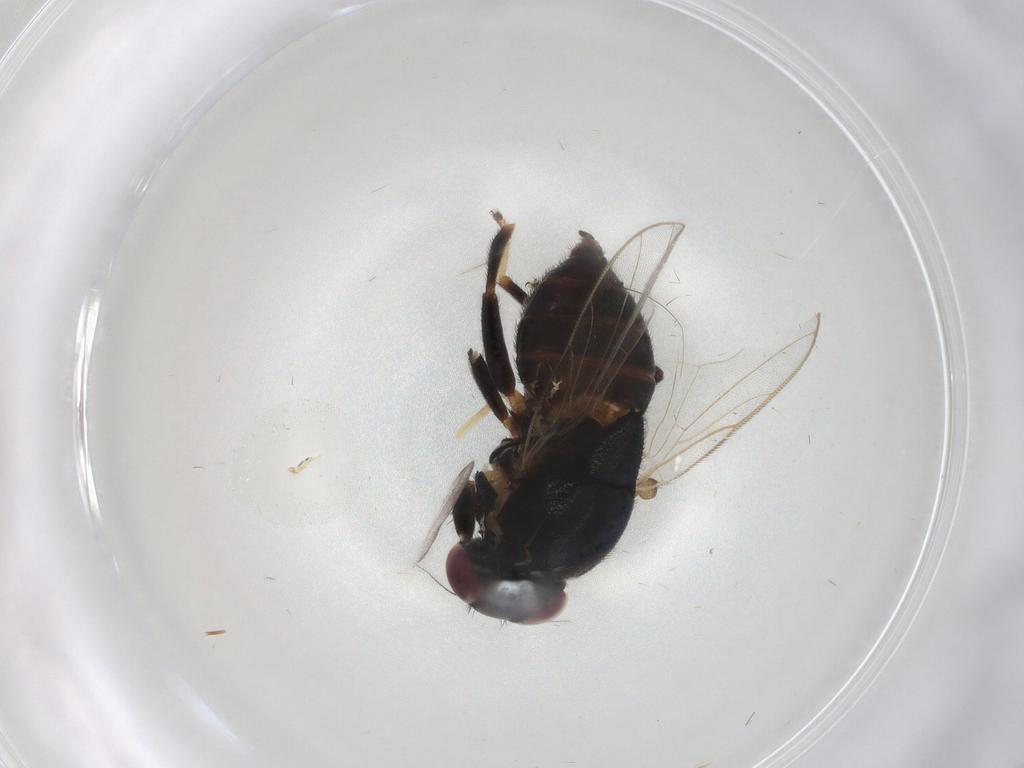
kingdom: Animalia
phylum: Arthropoda
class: Insecta
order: Diptera
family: Chloropidae
